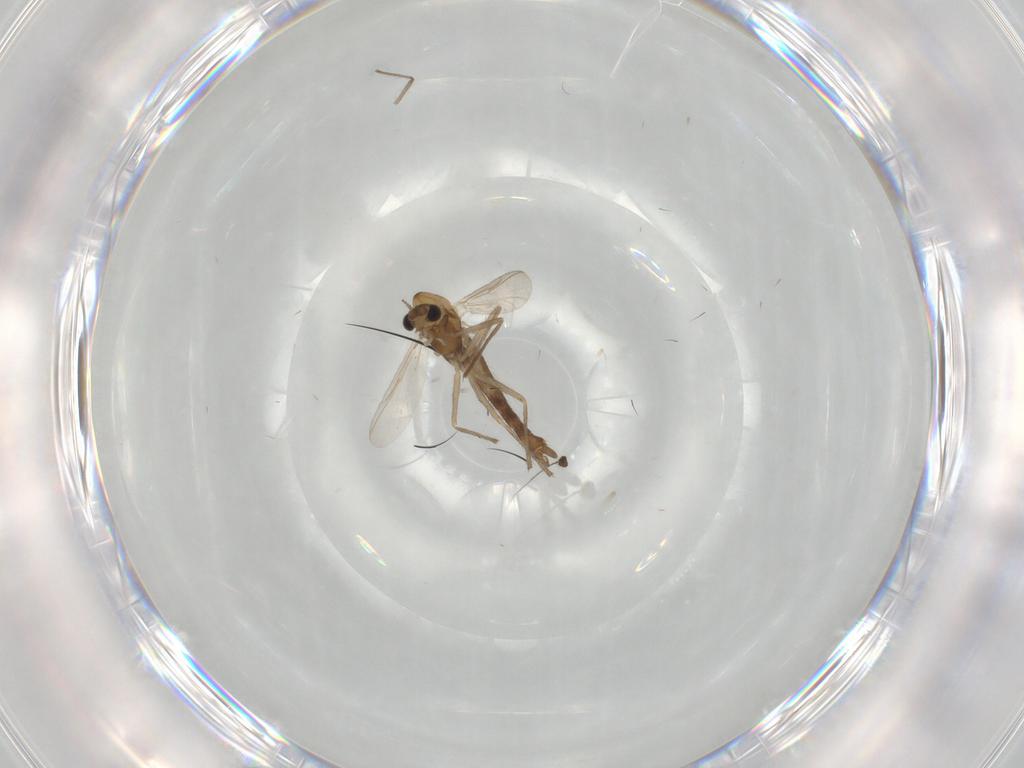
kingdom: Animalia
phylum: Arthropoda
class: Insecta
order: Diptera
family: Chironomidae
